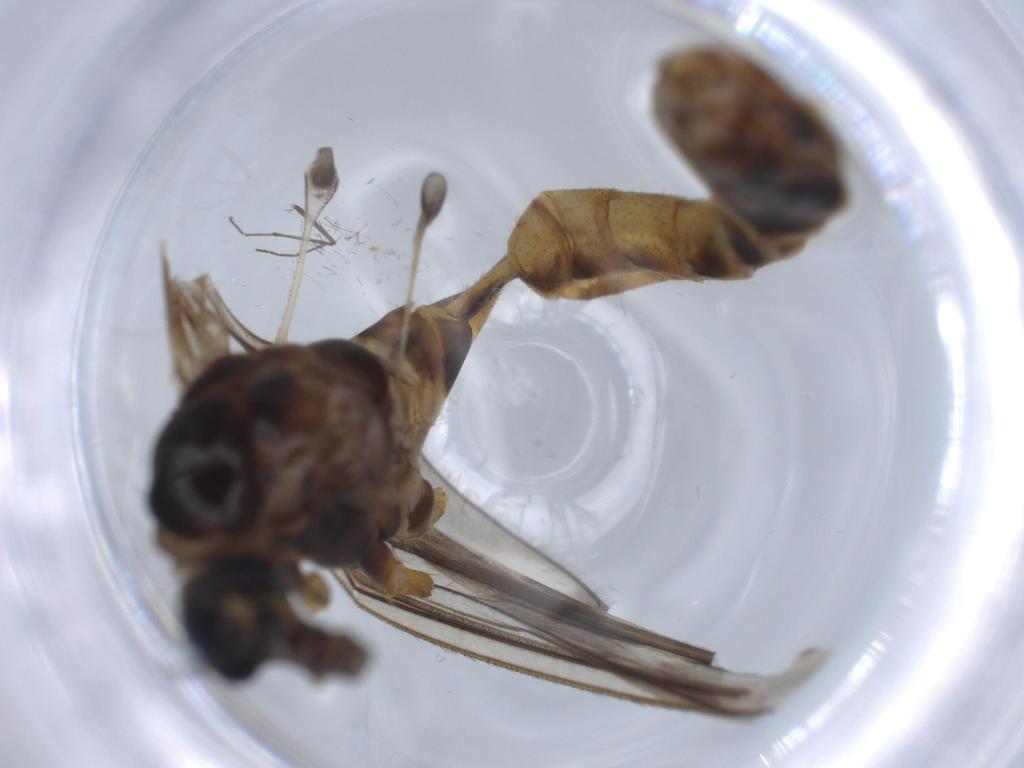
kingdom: Animalia
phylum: Arthropoda
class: Insecta
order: Diptera
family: Chironomidae
